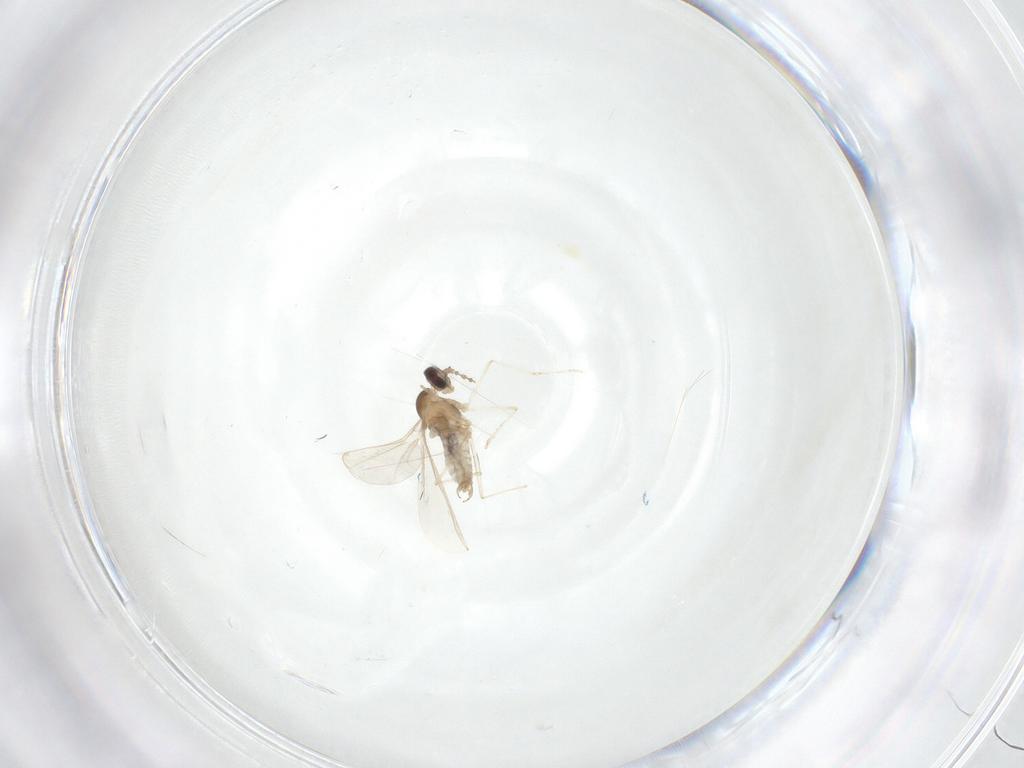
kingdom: Animalia
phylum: Arthropoda
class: Insecta
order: Diptera
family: Cecidomyiidae
